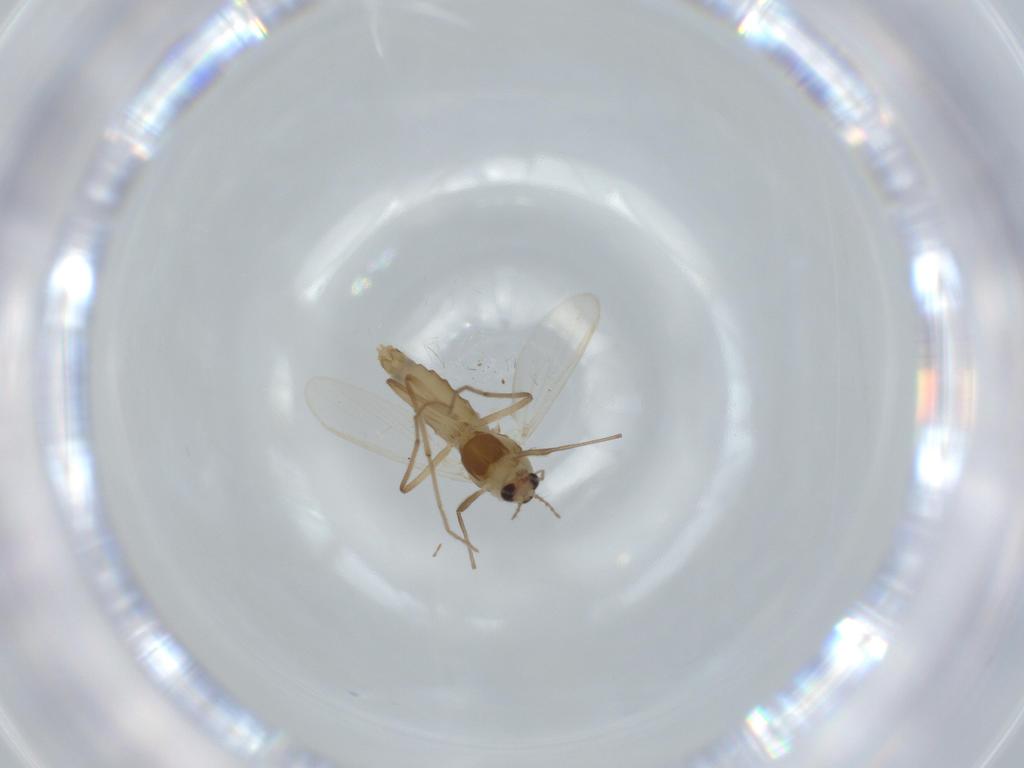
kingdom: Animalia
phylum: Arthropoda
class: Insecta
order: Diptera
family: Chironomidae
